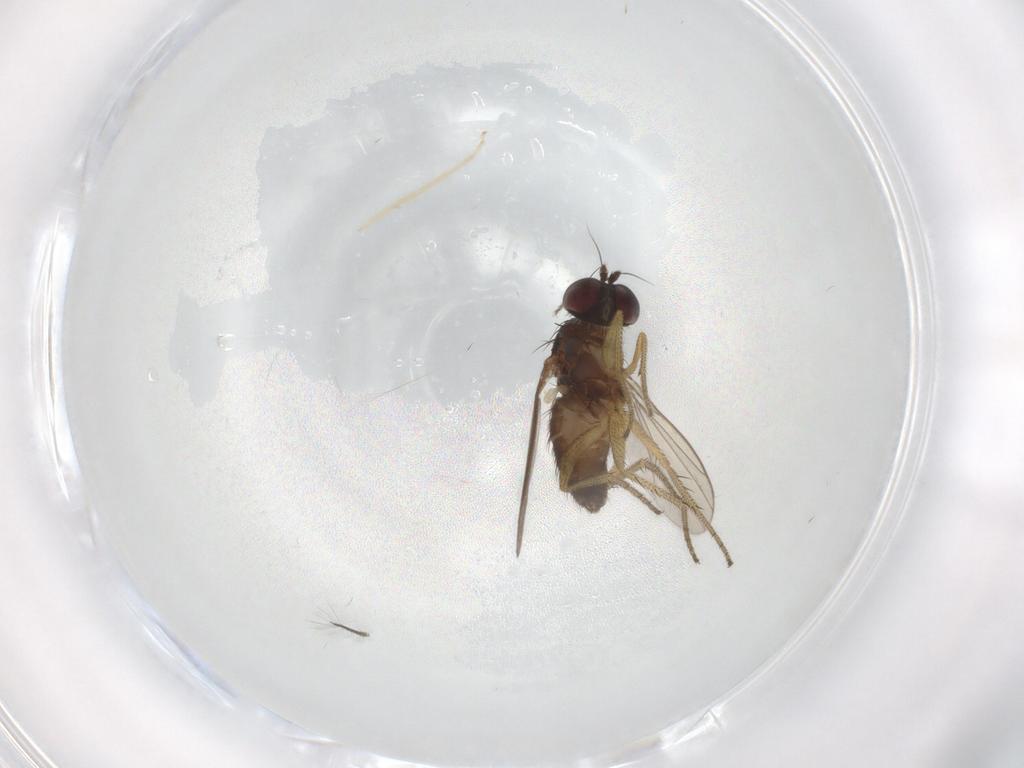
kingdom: Animalia
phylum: Arthropoda
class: Insecta
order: Diptera
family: Dolichopodidae
